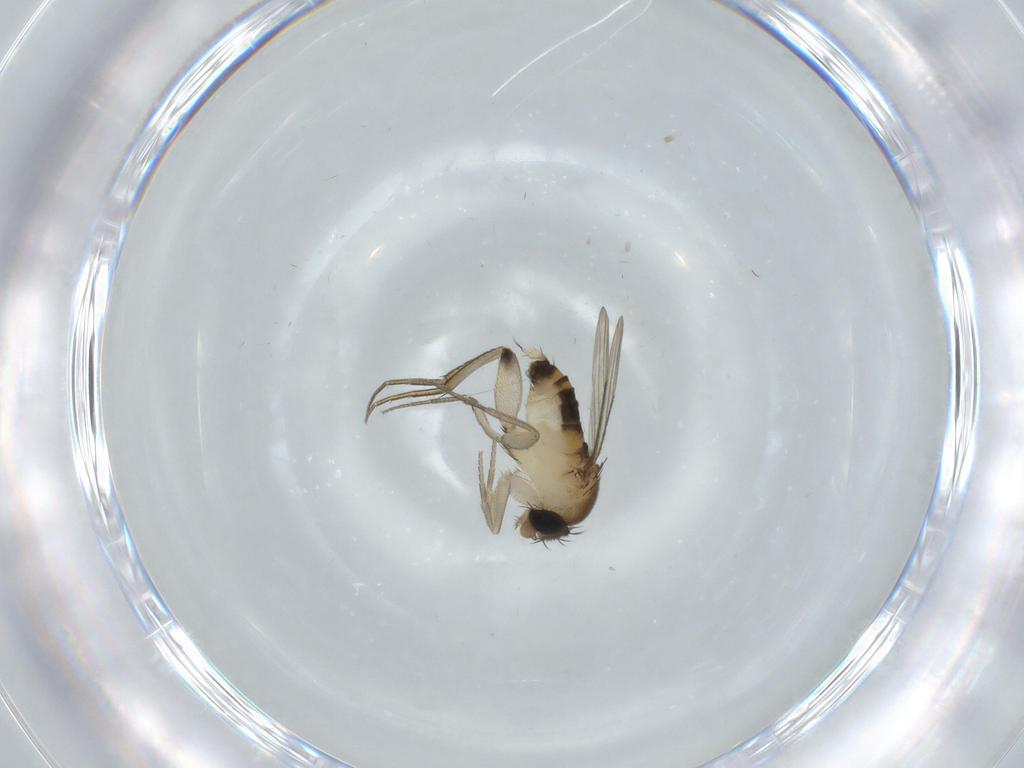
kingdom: Animalia
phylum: Arthropoda
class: Insecta
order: Diptera
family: Phoridae
